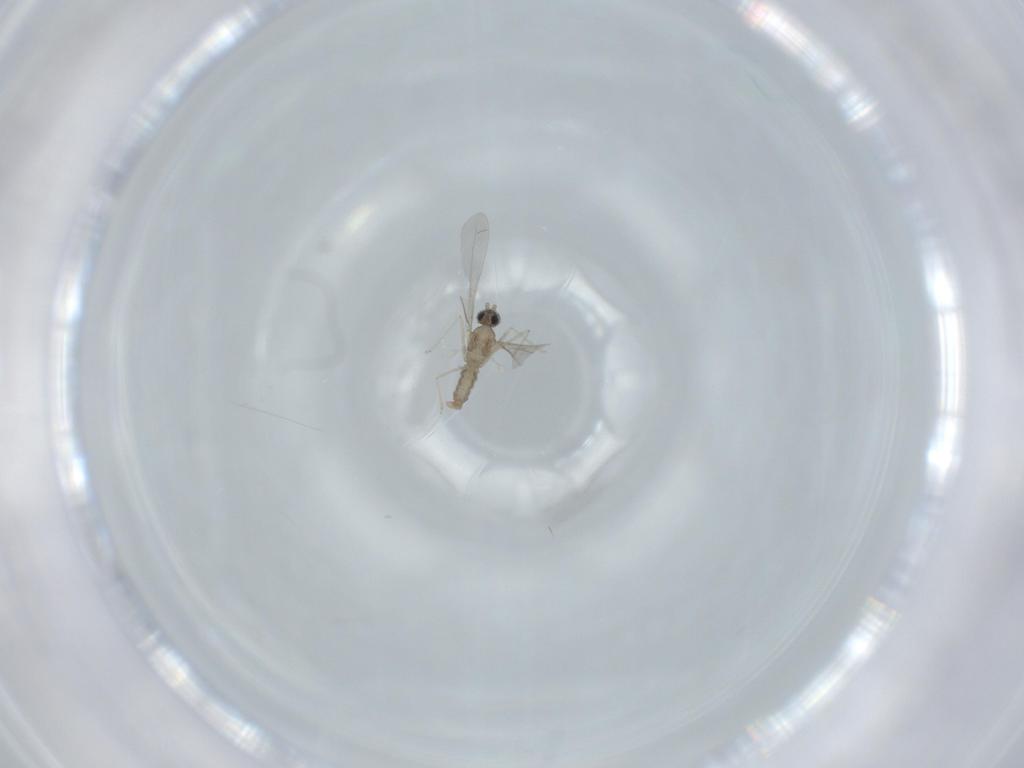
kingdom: Animalia
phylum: Arthropoda
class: Insecta
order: Diptera
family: Cecidomyiidae
